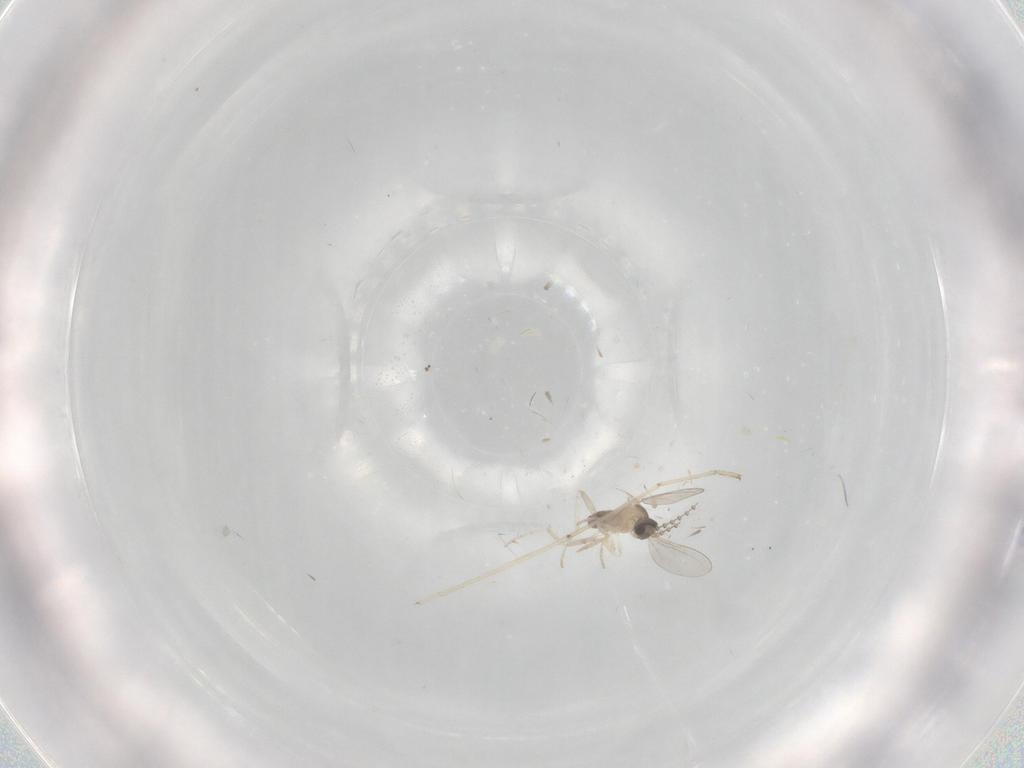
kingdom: Animalia
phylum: Arthropoda
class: Insecta
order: Diptera
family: Cecidomyiidae
